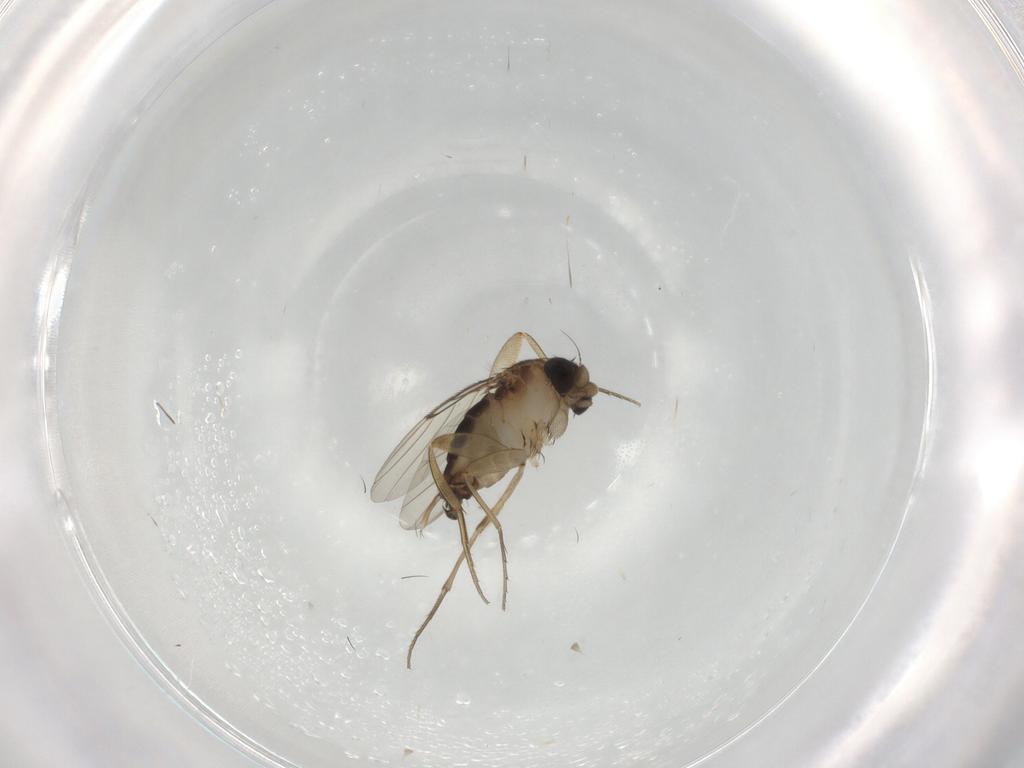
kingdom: Animalia
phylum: Arthropoda
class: Insecta
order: Diptera
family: Phoridae
